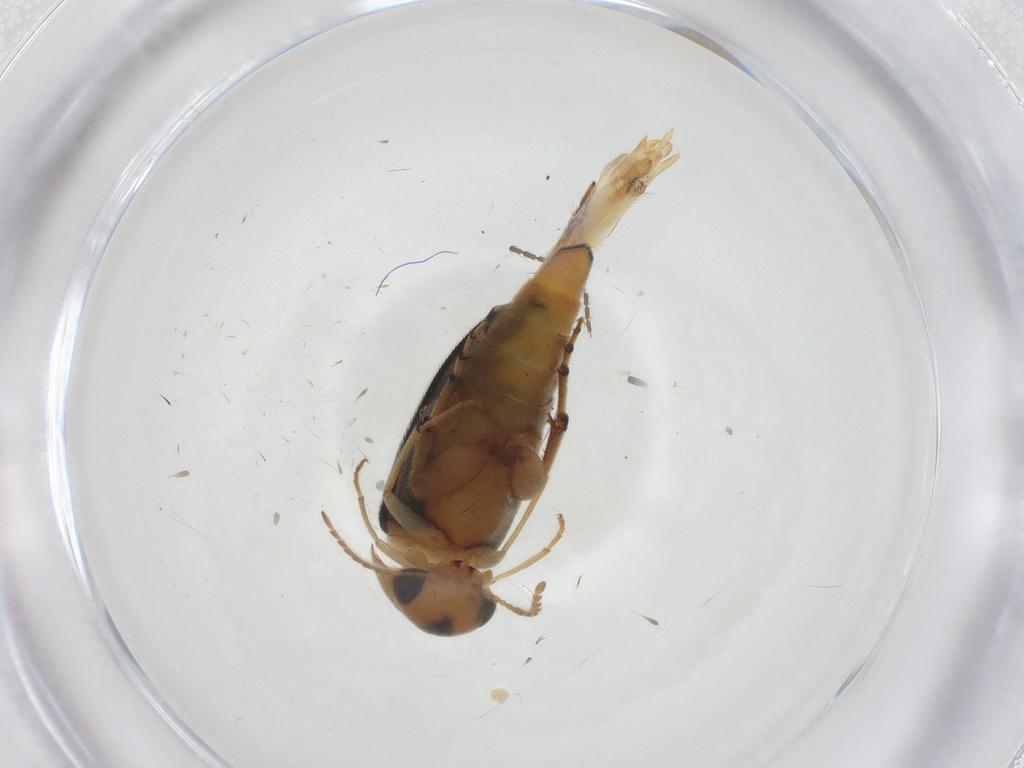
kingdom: Animalia
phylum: Arthropoda
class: Insecta
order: Coleoptera
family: Mordellidae
